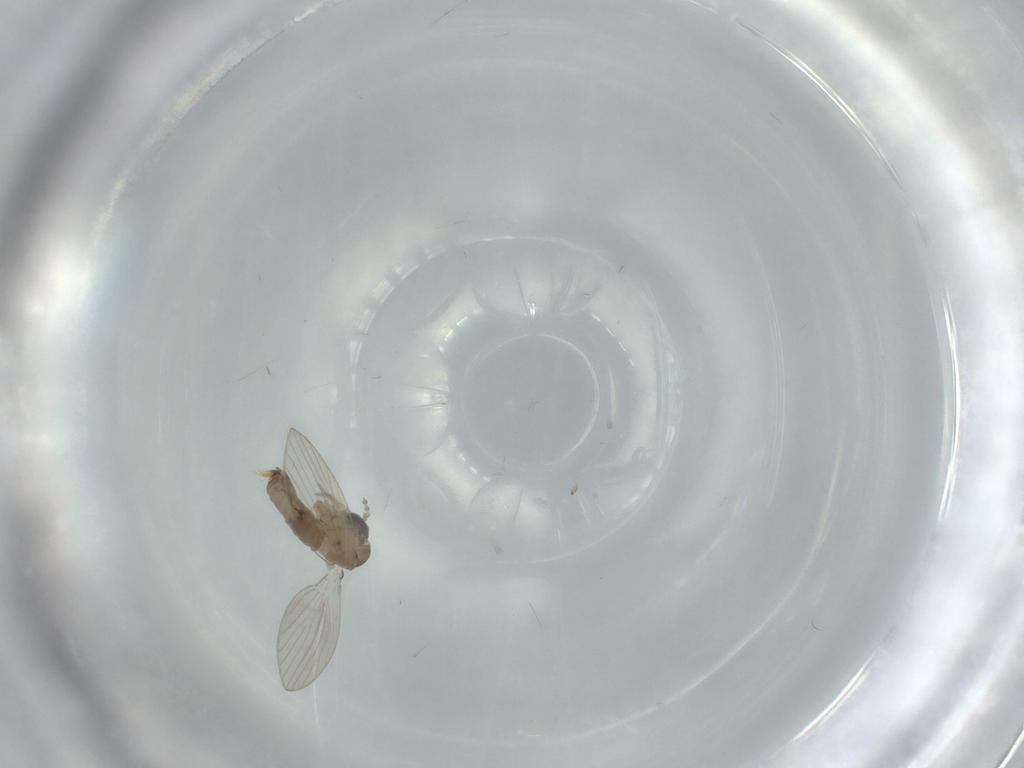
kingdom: Animalia
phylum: Arthropoda
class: Insecta
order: Diptera
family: Psychodidae
